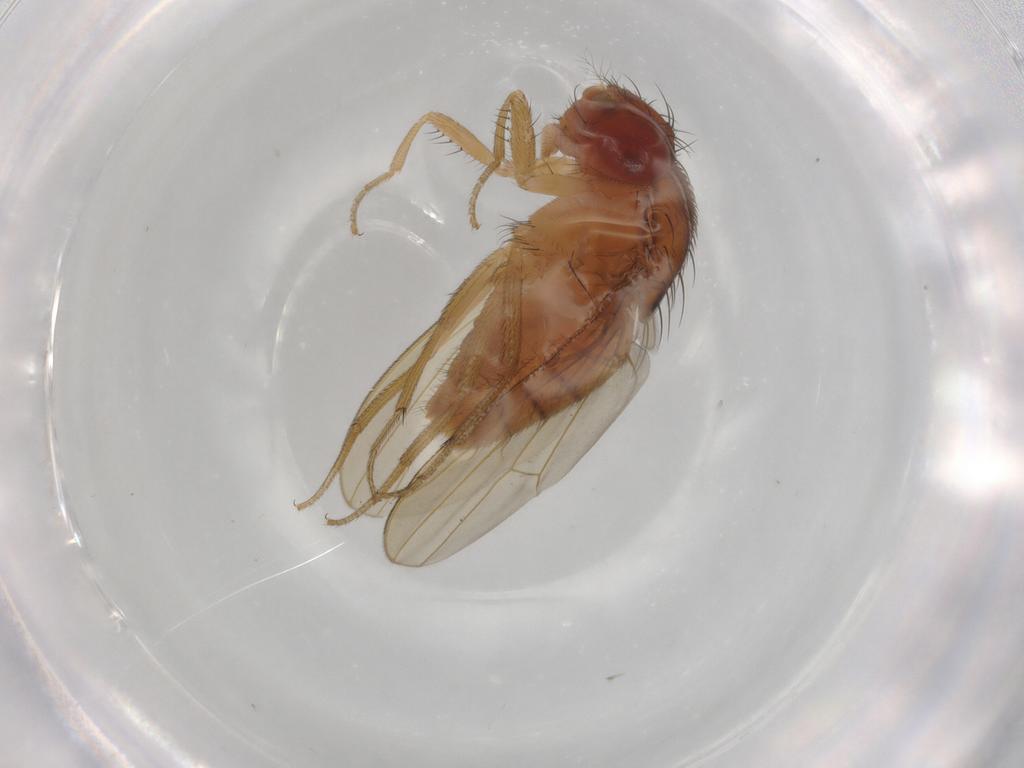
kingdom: Animalia
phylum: Arthropoda
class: Insecta
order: Diptera
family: Drosophilidae
